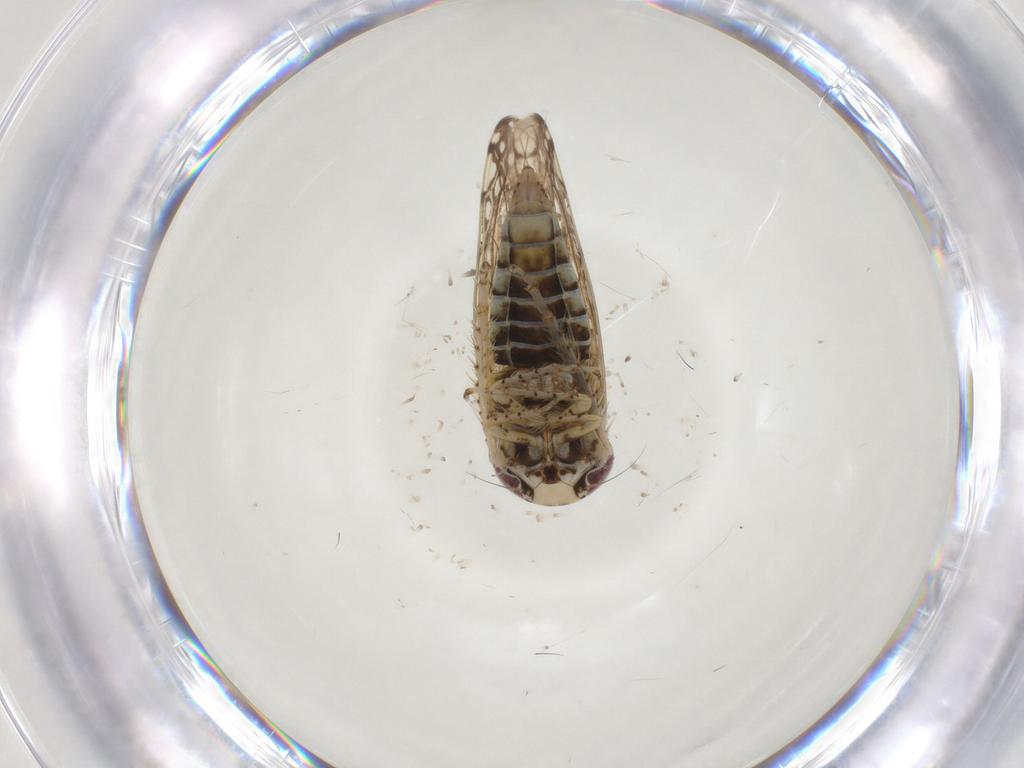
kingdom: Animalia
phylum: Arthropoda
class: Insecta
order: Hemiptera
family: Cicadellidae
